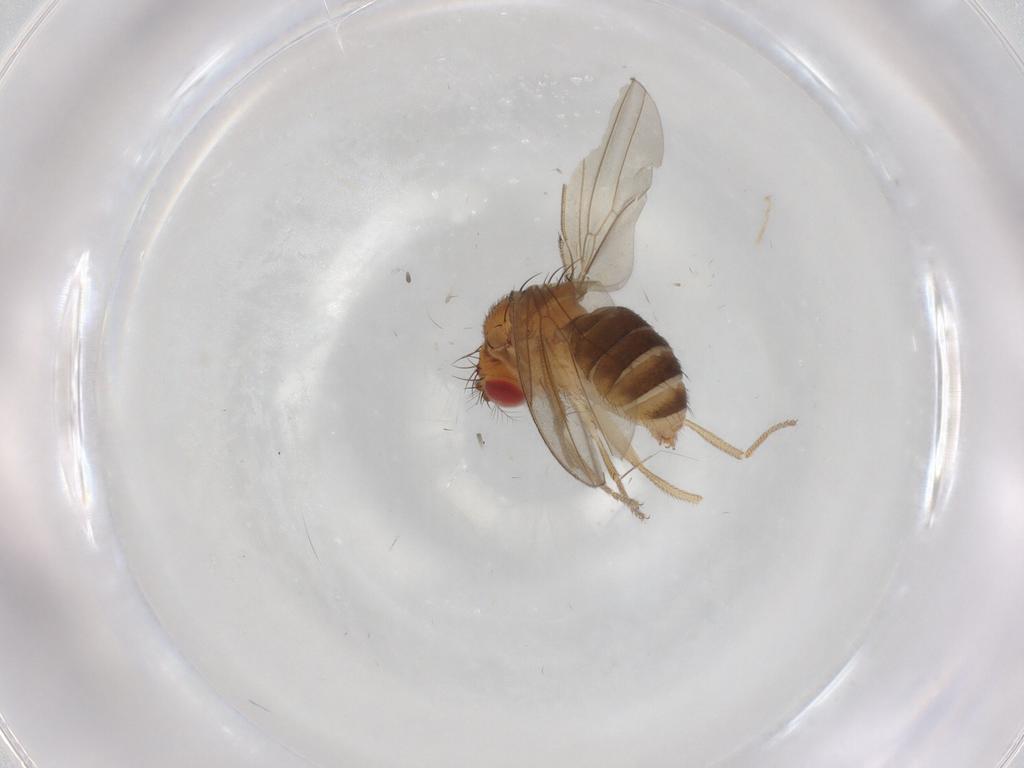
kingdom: Animalia
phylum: Arthropoda
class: Insecta
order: Diptera
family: Drosophilidae
